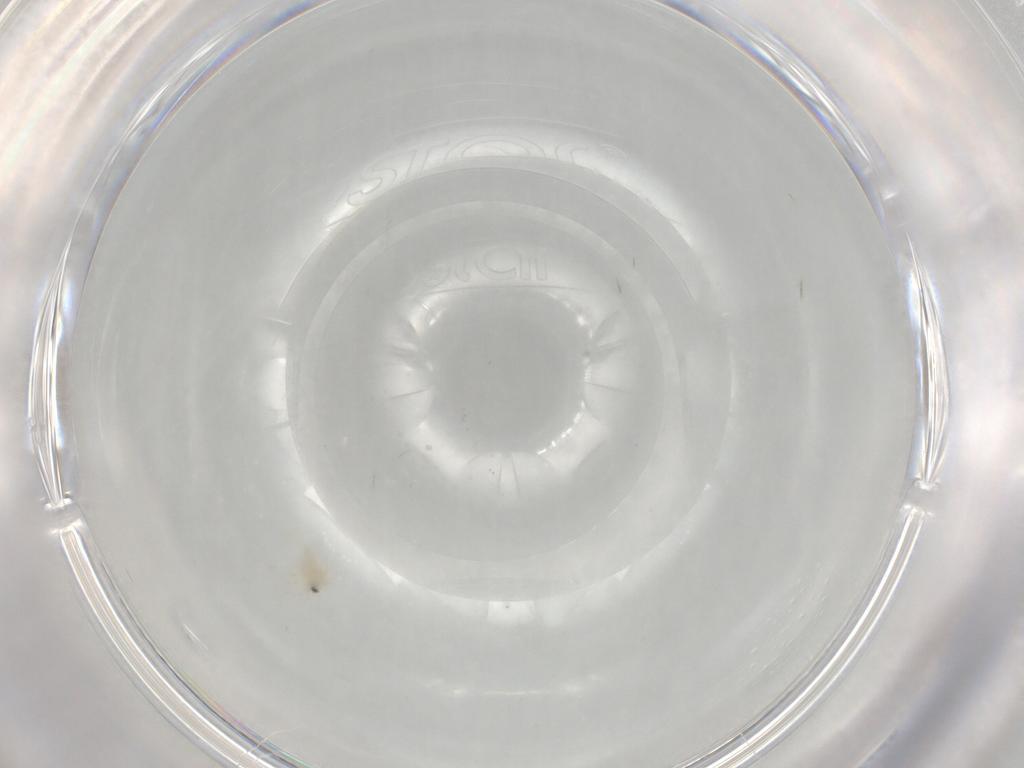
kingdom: Animalia
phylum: Arthropoda
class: Insecta
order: Hemiptera
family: Aleyrodidae
